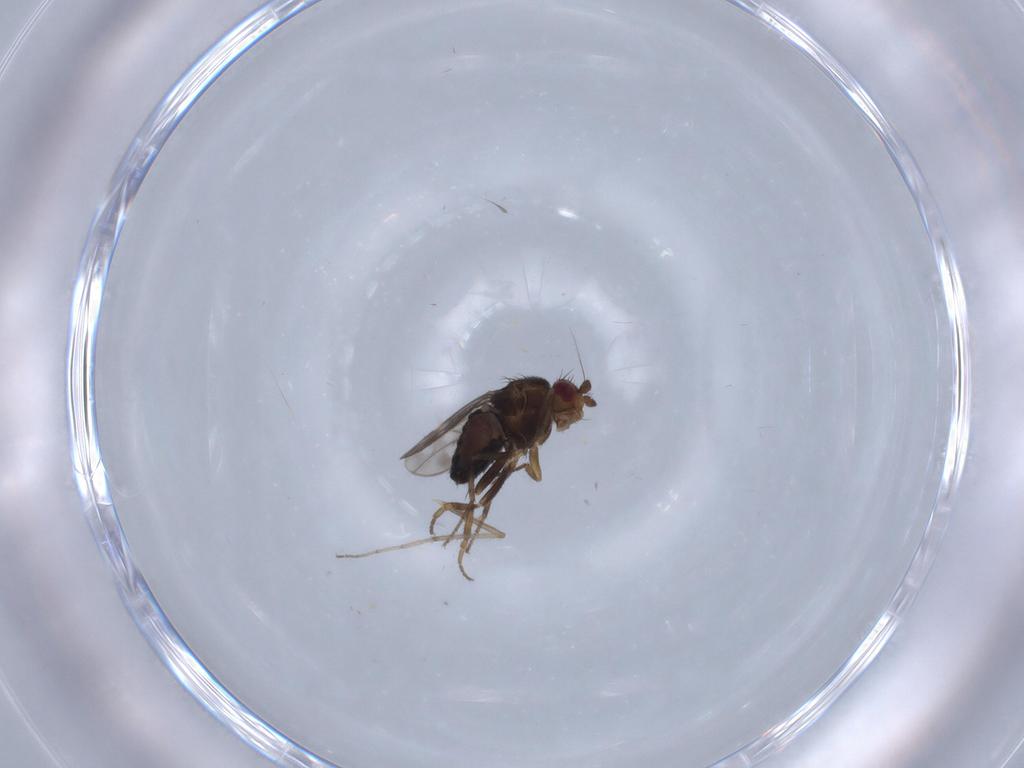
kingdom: Animalia
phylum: Arthropoda
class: Insecta
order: Diptera
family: Chironomidae
